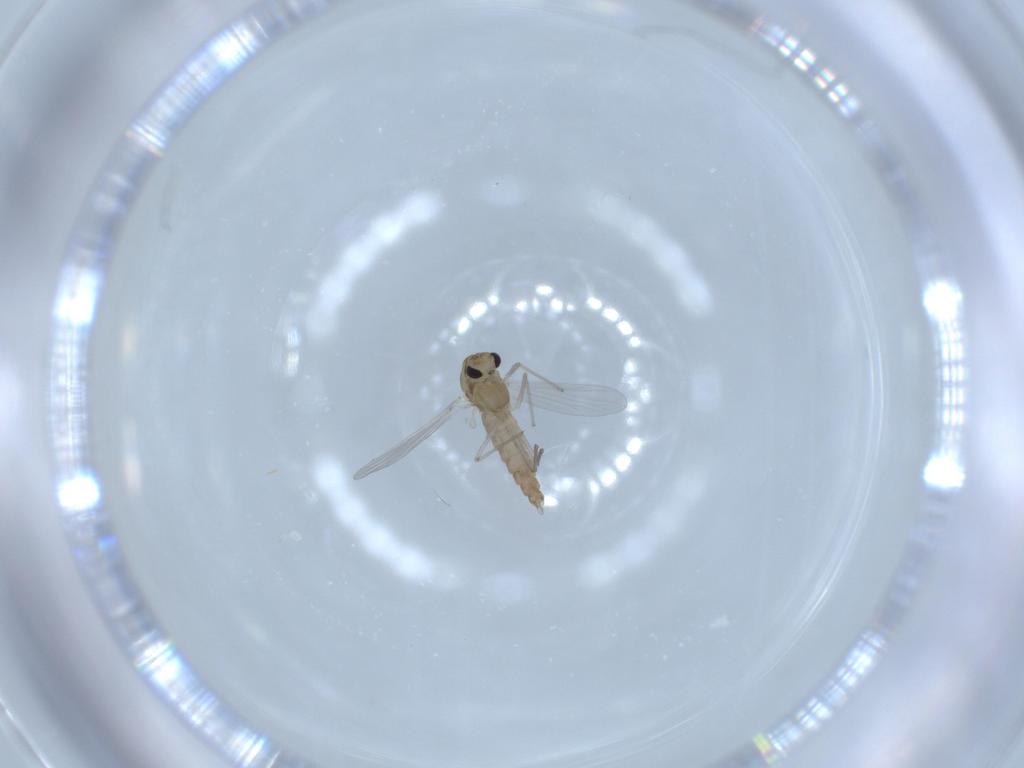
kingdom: Animalia
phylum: Arthropoda
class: Insecta
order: Diptera
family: Chironomidae
